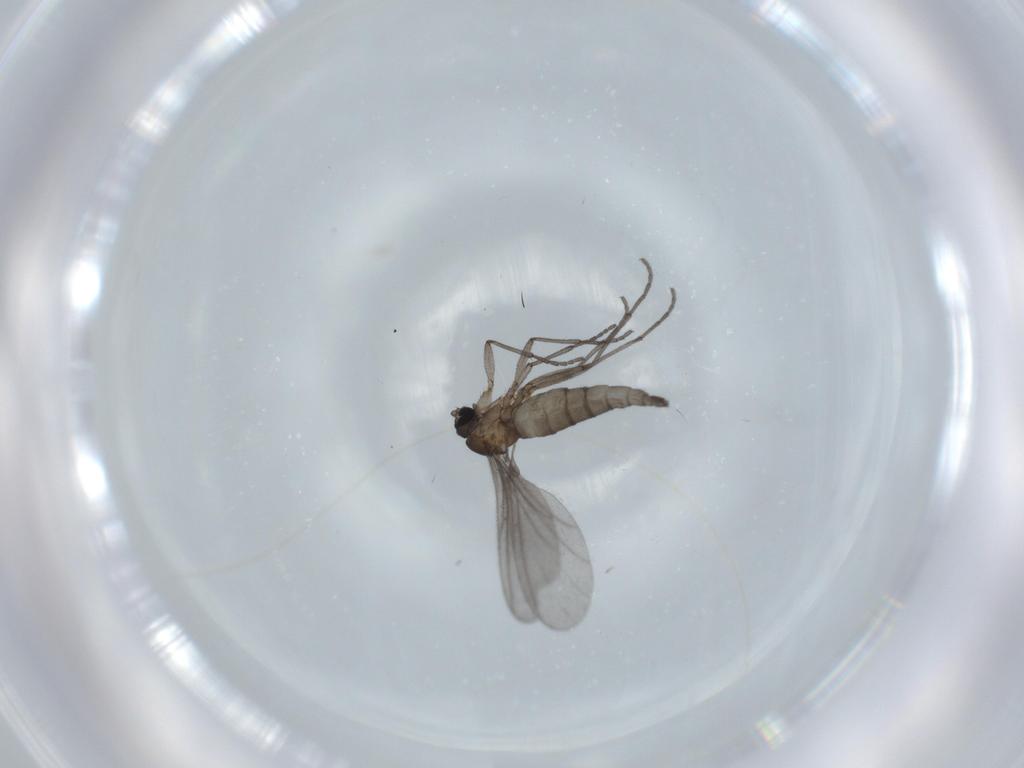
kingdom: Animalia
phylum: Arthropoda
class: Insecta
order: Diptera
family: Sciaridae
